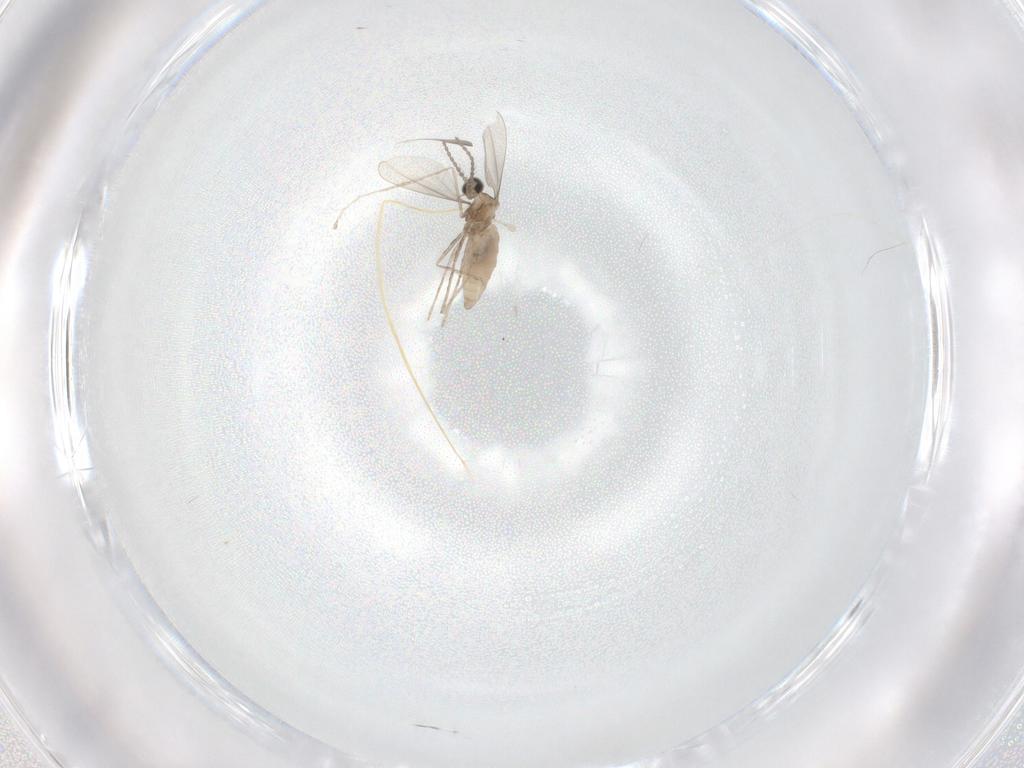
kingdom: Animalia
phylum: Arthropoda
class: Insecta
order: Diptera
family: Cecidomyiidae
